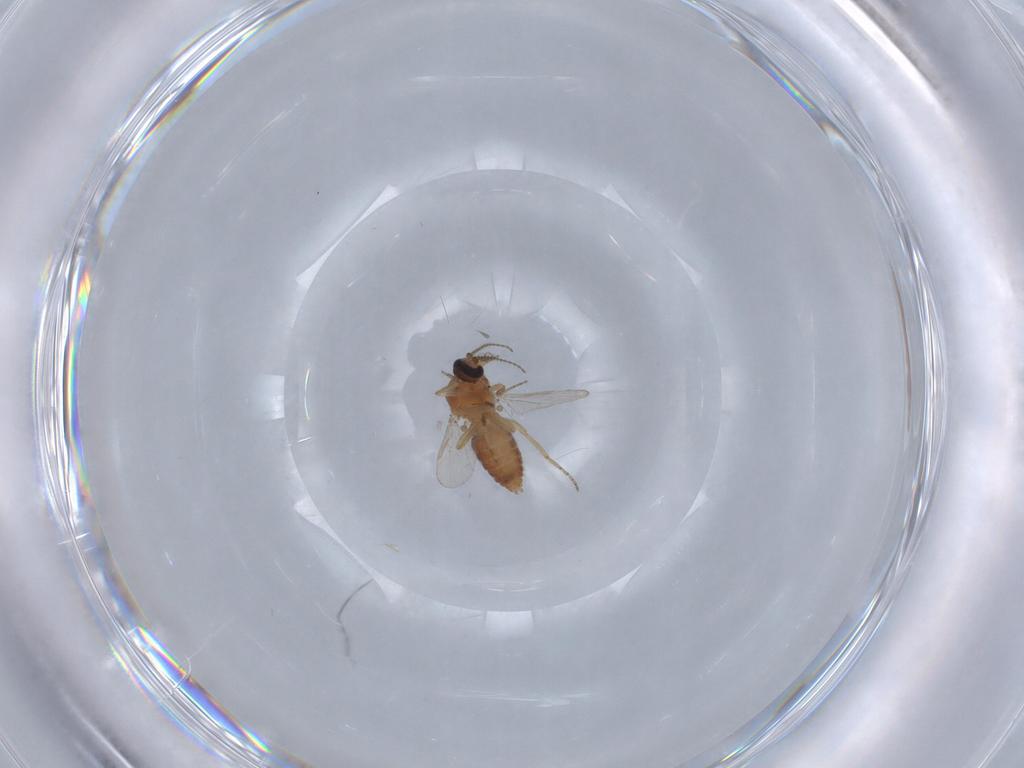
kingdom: Animalia
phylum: Arthropoda
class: Insecta
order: Diptera
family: Ceratopogonidae
